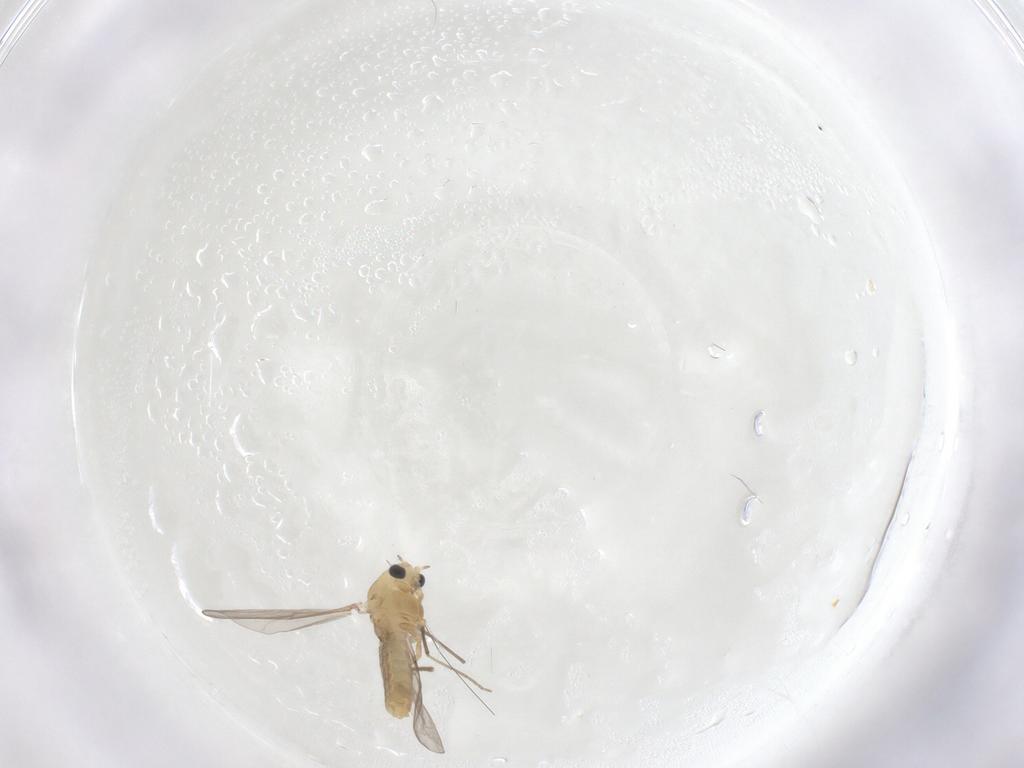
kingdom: Animalia
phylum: Arthropoda
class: Insecta
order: Diptera
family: Chironomidae
